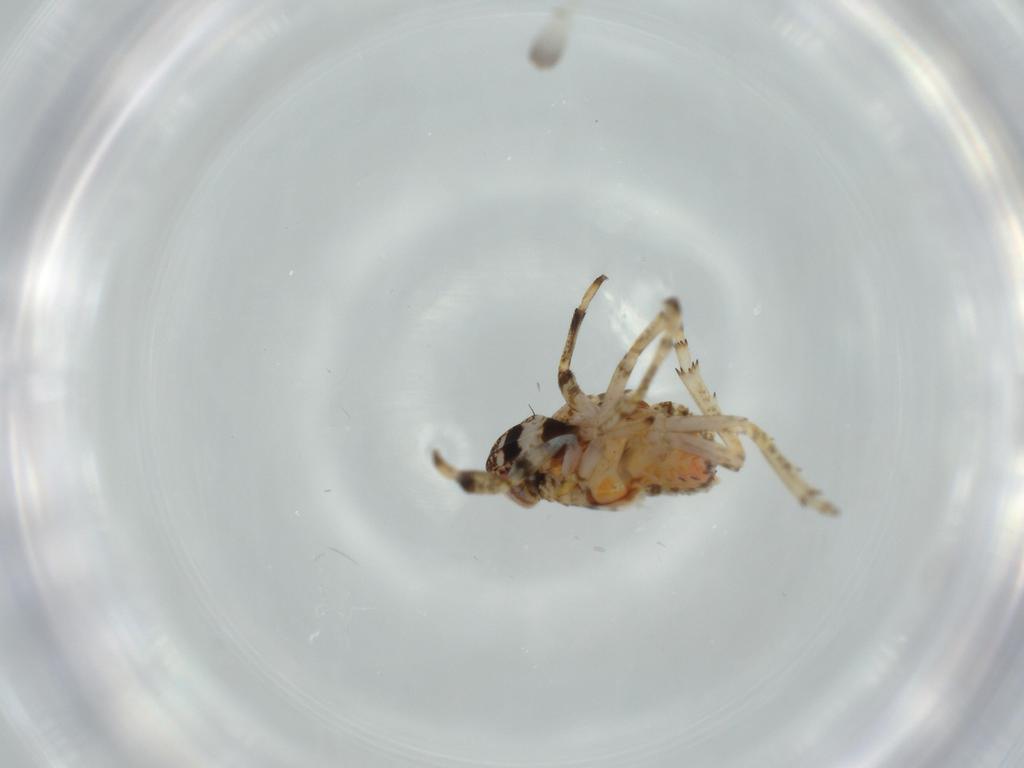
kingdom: Animalia
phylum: Arthropoda
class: Insecta
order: Hemiptera
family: Issidae
